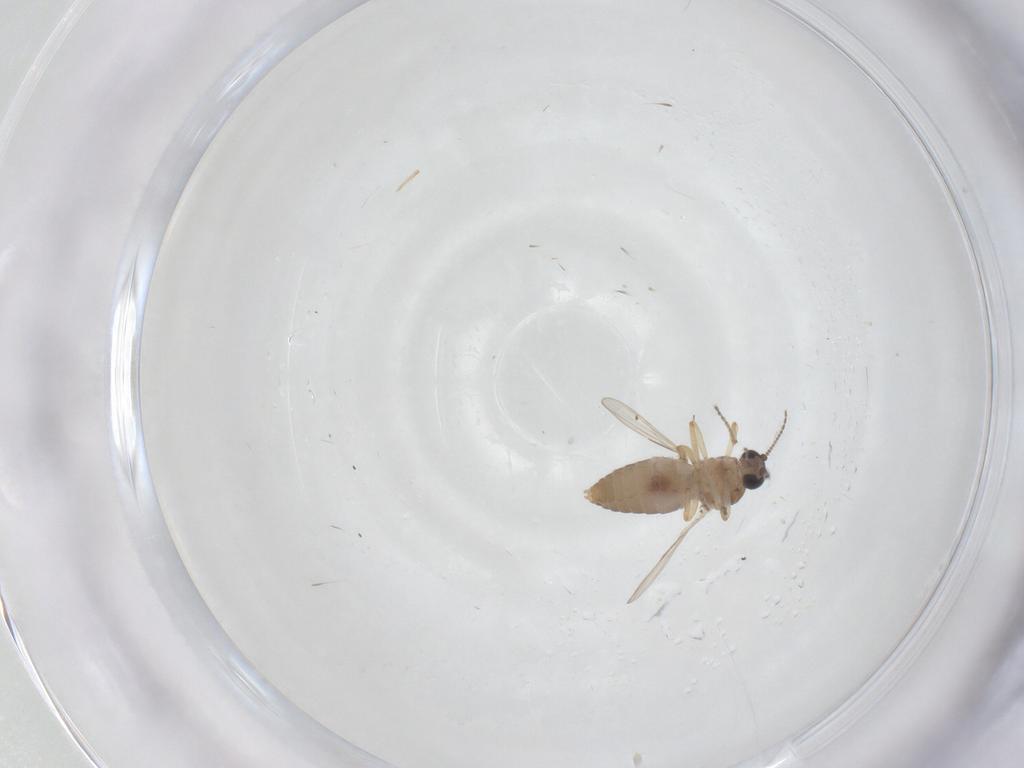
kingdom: Animalia
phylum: Arthropoda
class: Insecta
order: Diptera
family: Ceratopogonidae
